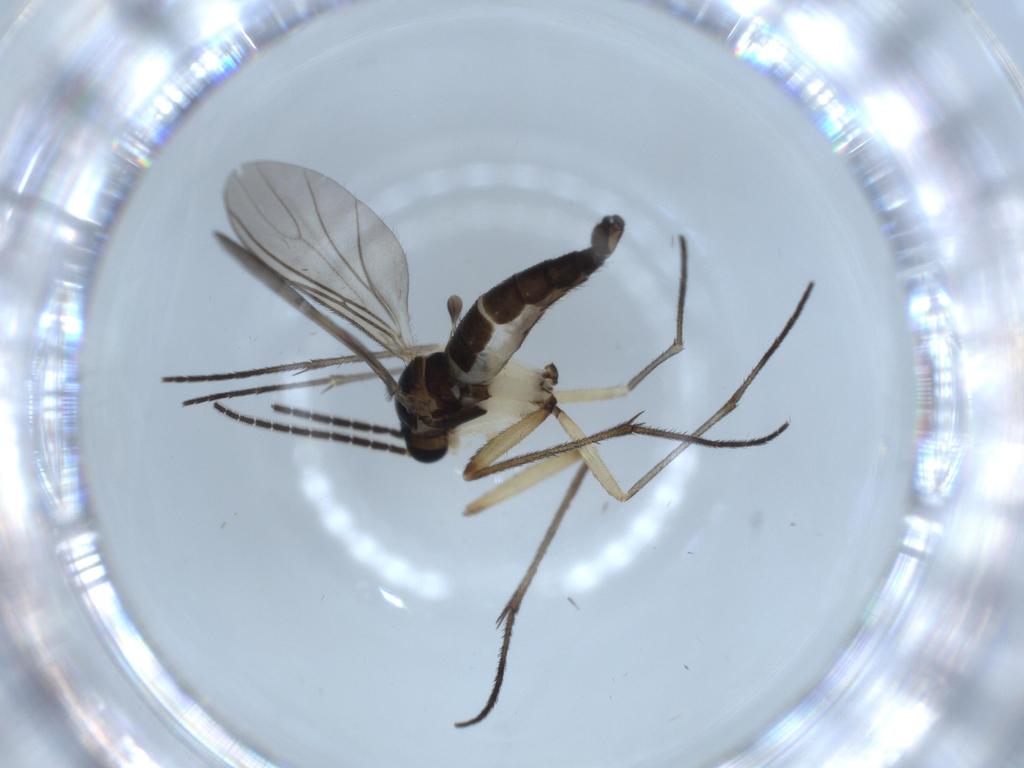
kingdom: Animalia
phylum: Arthropoda
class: Insecta
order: Diptera
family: Sciaridae
